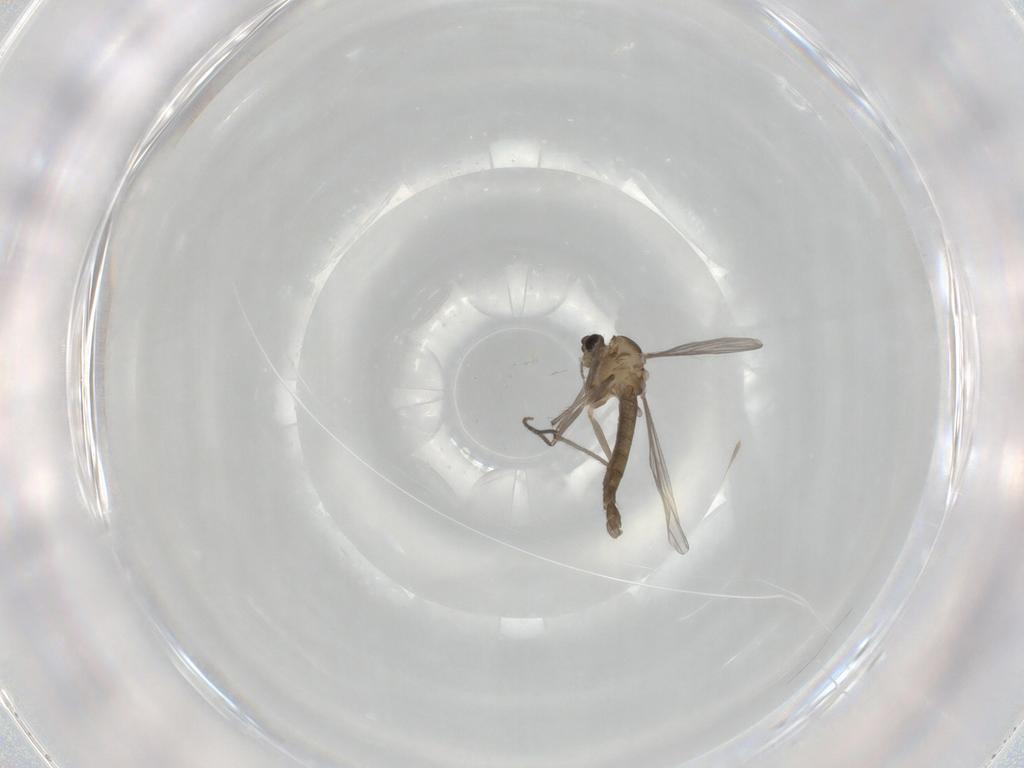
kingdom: Animalia
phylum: Arthropoda
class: Insecta
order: Diptera
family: Chironomidae
